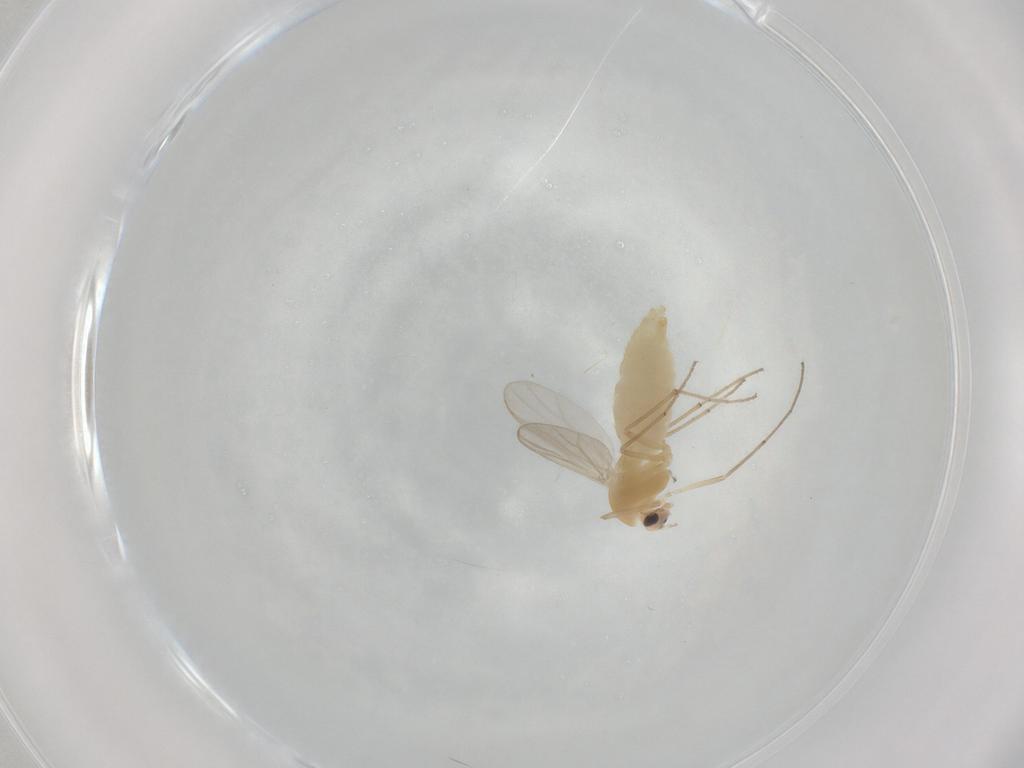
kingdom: Animalia
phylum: Arthropoda
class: Insecta
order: Diptera
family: Chironomidae
